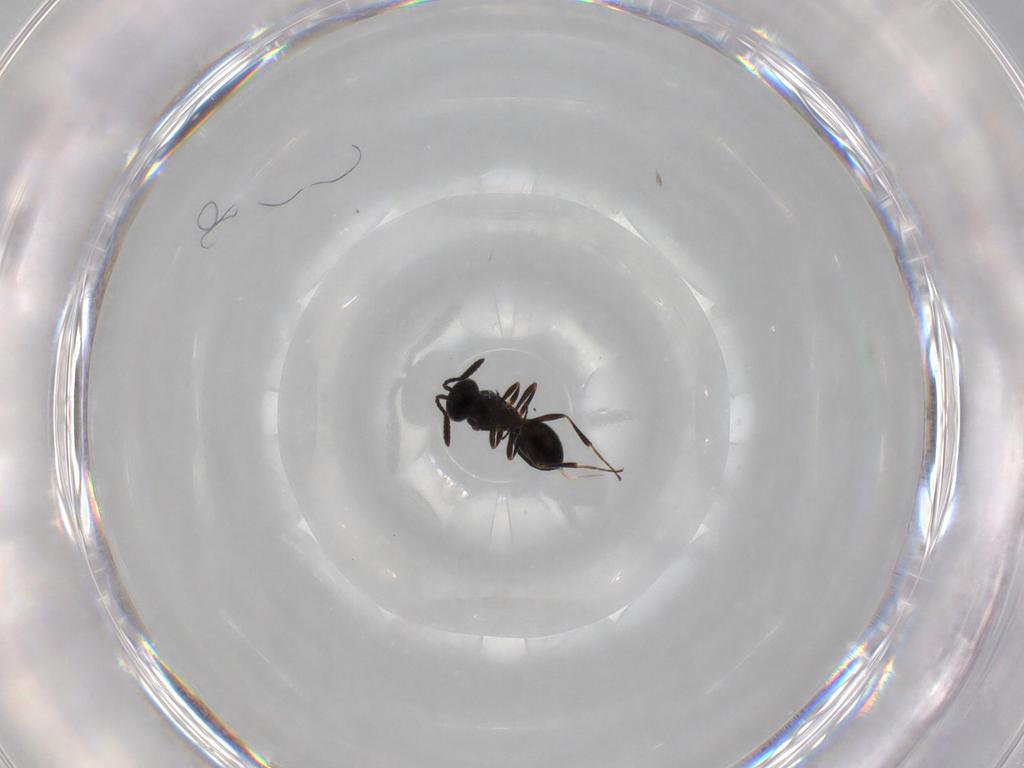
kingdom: Animalia
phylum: Arthropoda
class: Insecta
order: Hymenoptera
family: Scelionidae
